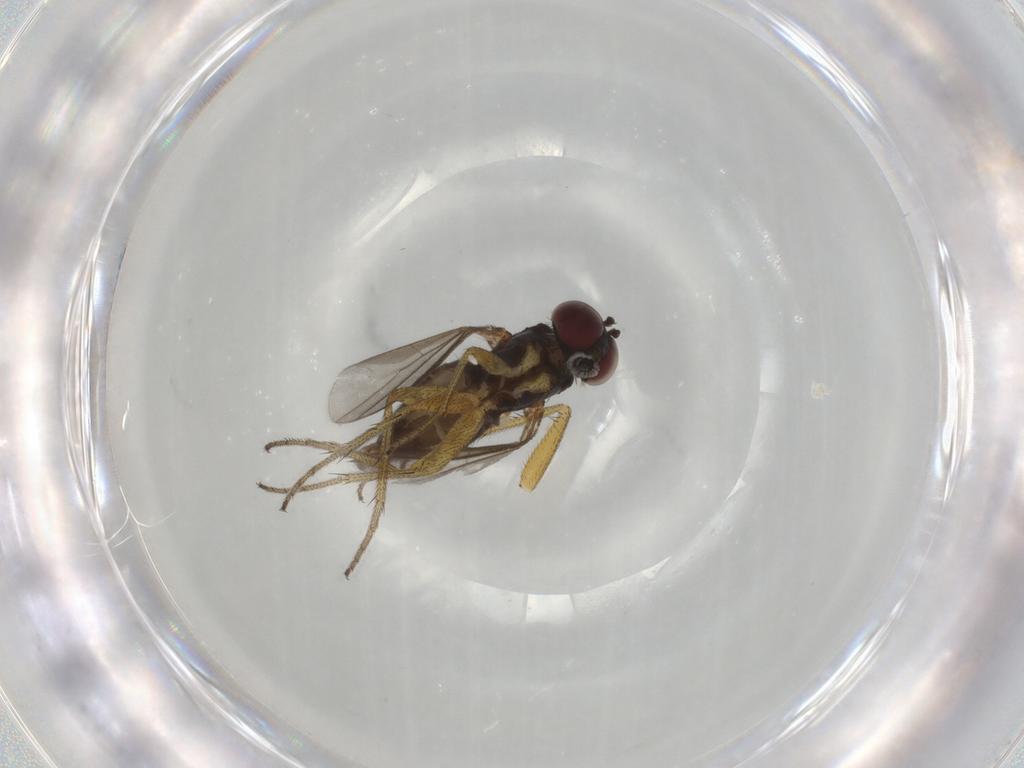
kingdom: Animalia
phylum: Arthropoda
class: Insecta
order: Diptera
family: Dolichopodidae
